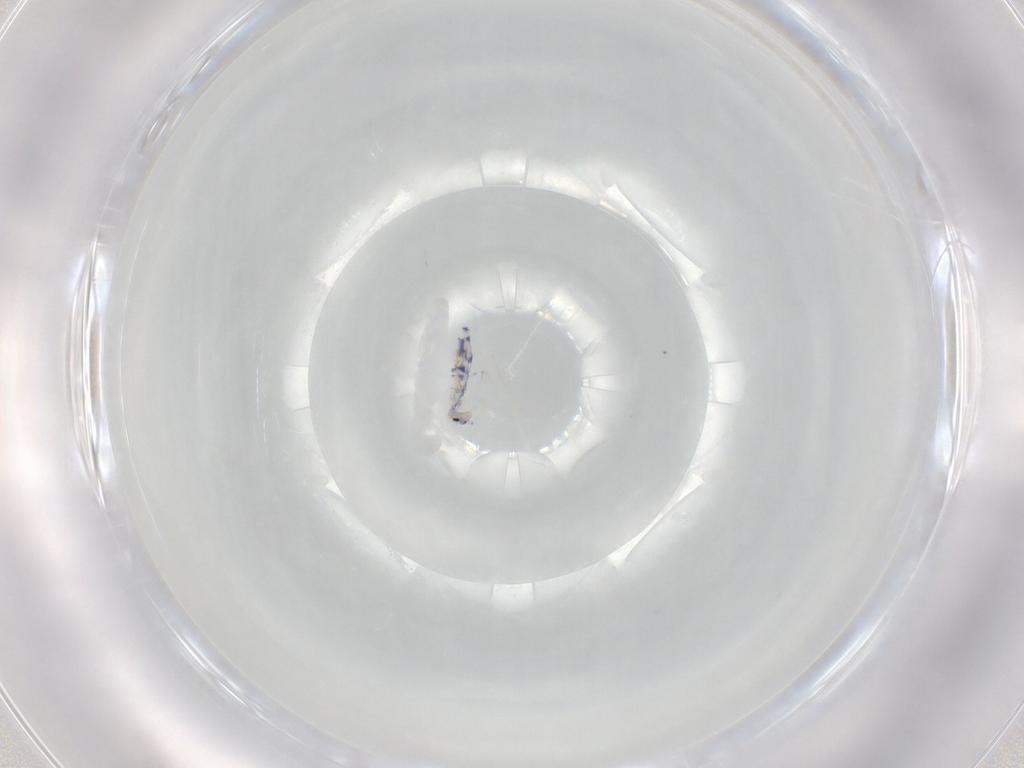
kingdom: Animalia
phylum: Arthropoda
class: Collembola
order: Entomobryomorpha
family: Entomobryidae
